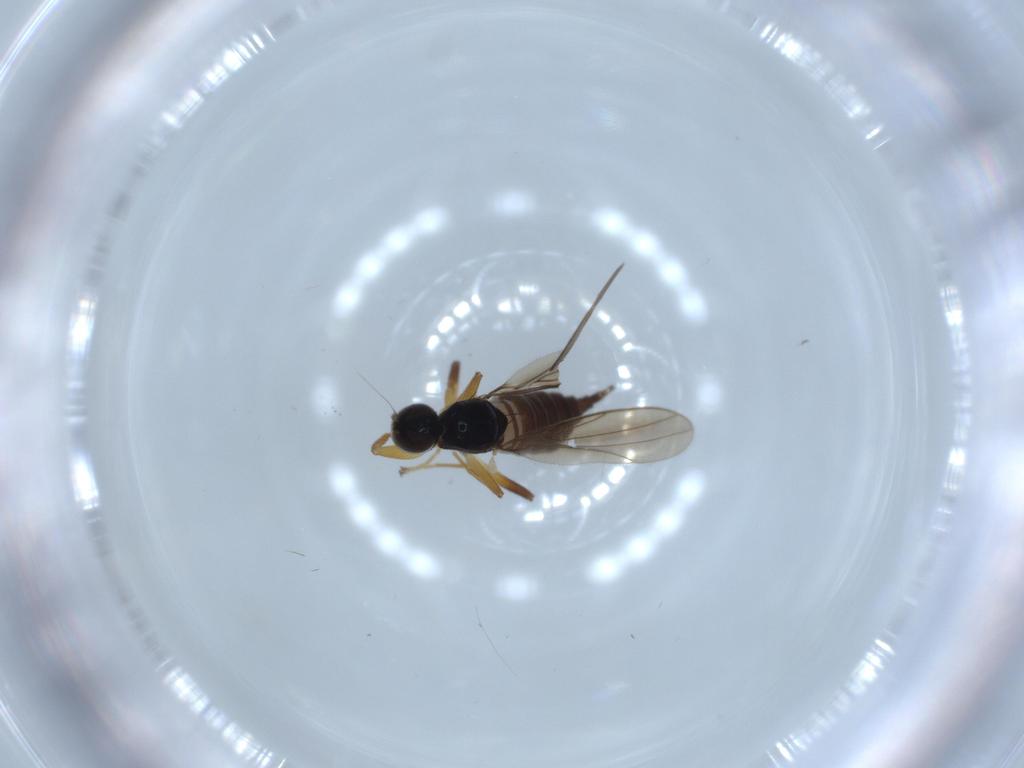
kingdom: Animalia
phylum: Arthropoda
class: Insecta
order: Diptera
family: Hybotidae
